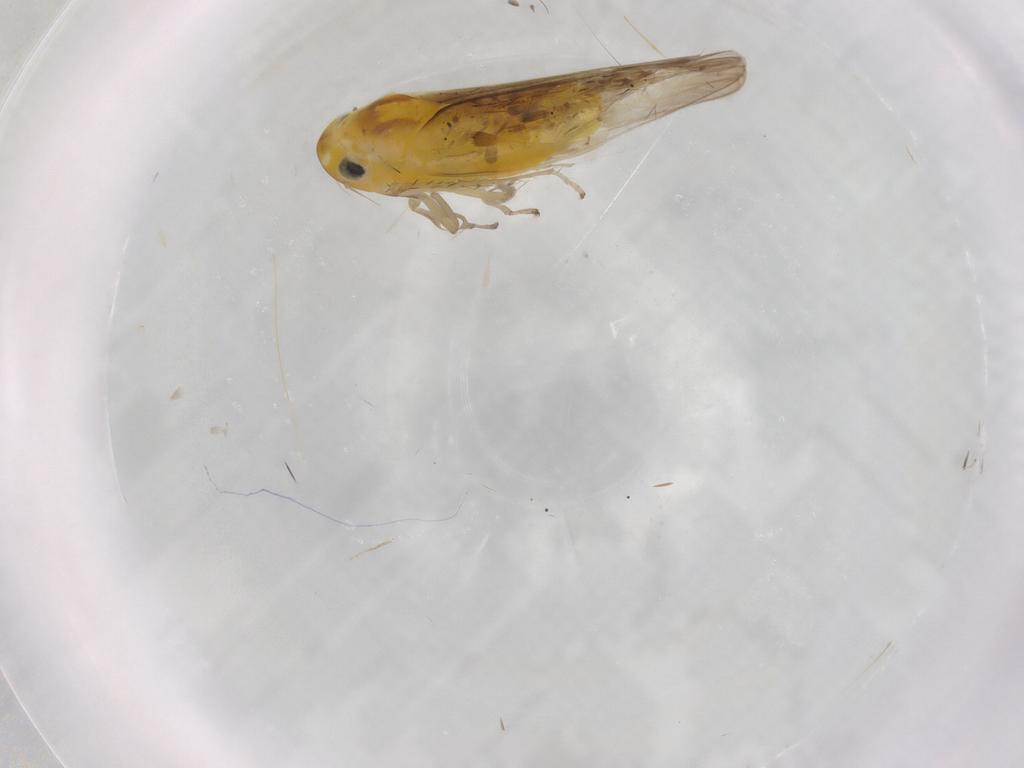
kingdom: Animalia
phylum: Arthropoda
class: Insecta
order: Hemiptera
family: Cicadellidae
